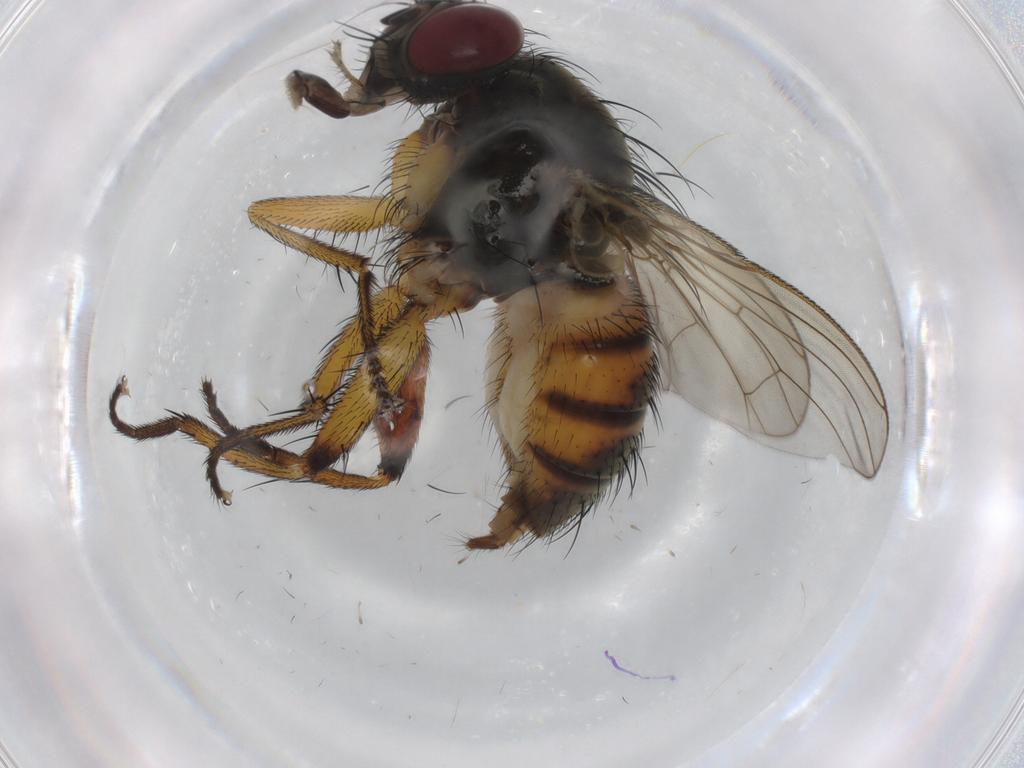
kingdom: Animalia
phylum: Arthropoda
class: Insecta
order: Diptera
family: Muscidae
